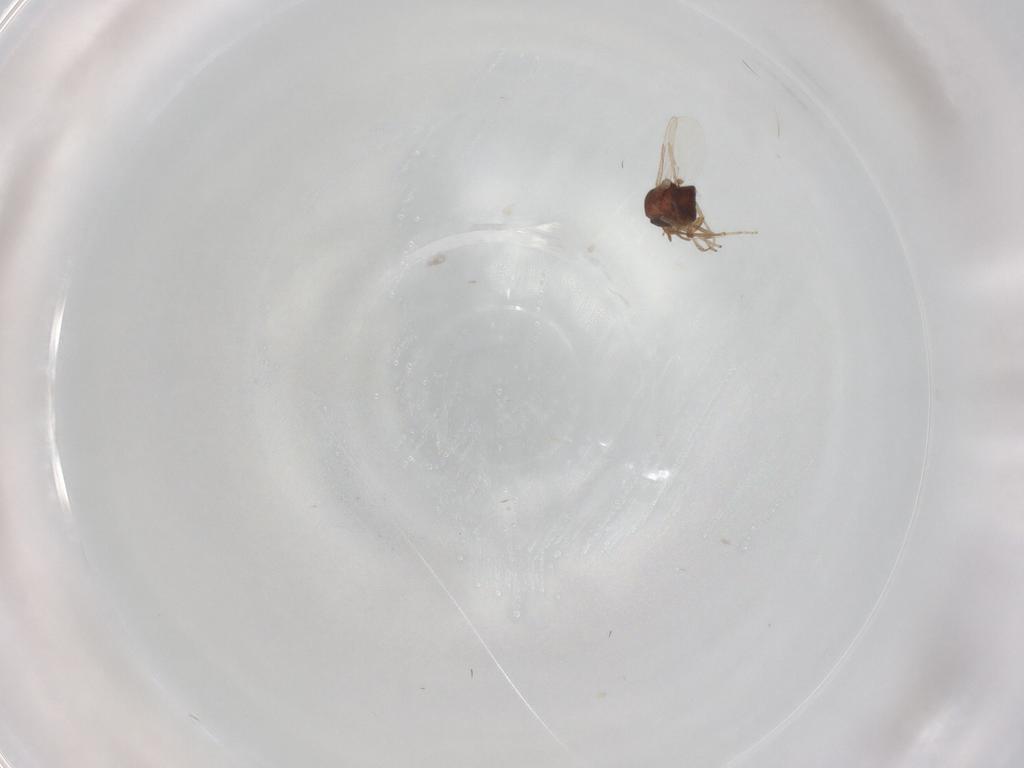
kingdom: Animalia
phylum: Arthropoda
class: Insecta
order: Diptera
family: Ceratopogonidae
